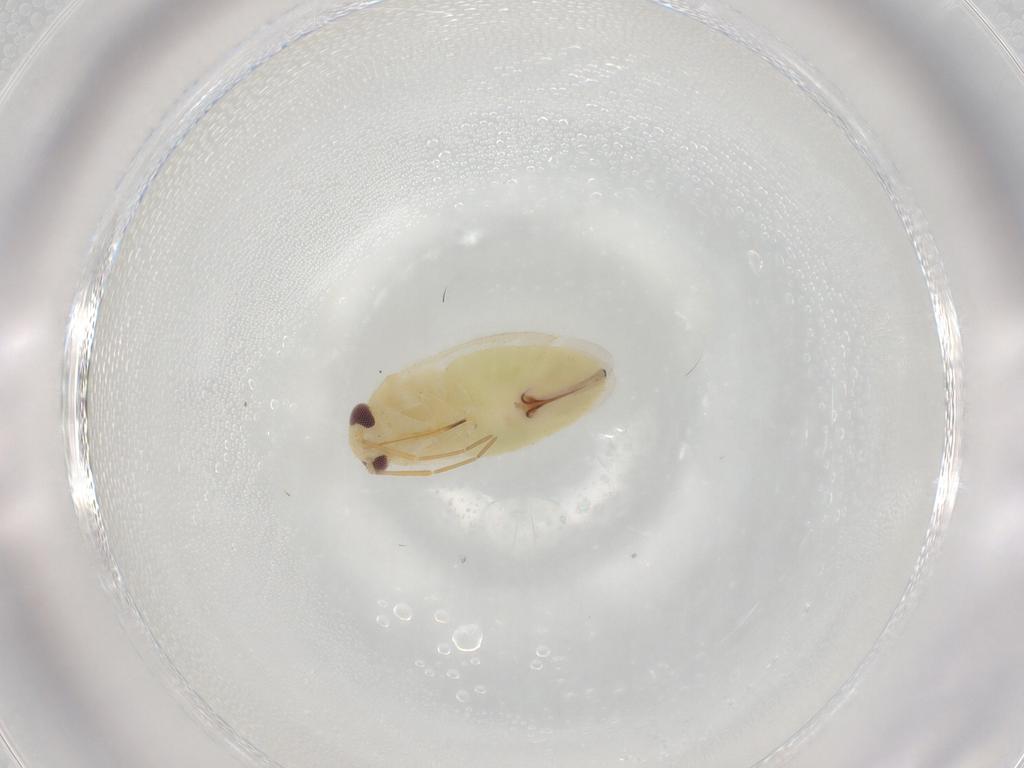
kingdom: Animalia
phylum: Arthropoda
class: Insecta
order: Hemiptera
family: Miridae
